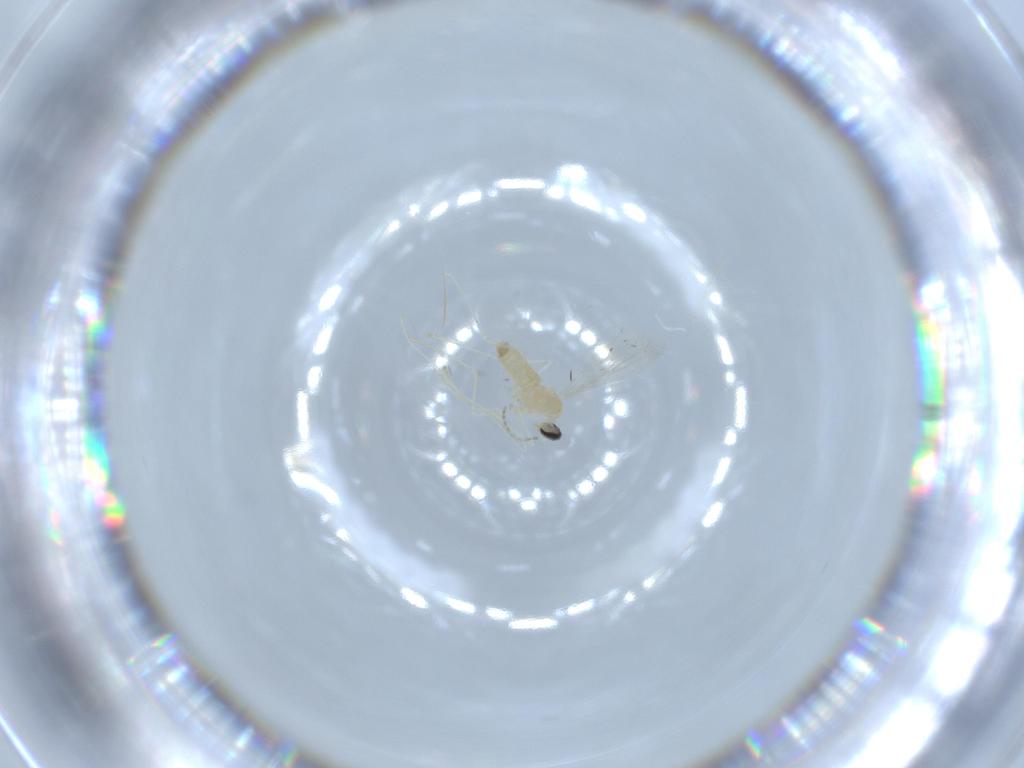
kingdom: Animalia
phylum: Arthropoda
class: Insecta
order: Diptera
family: Cecidomyiidae
